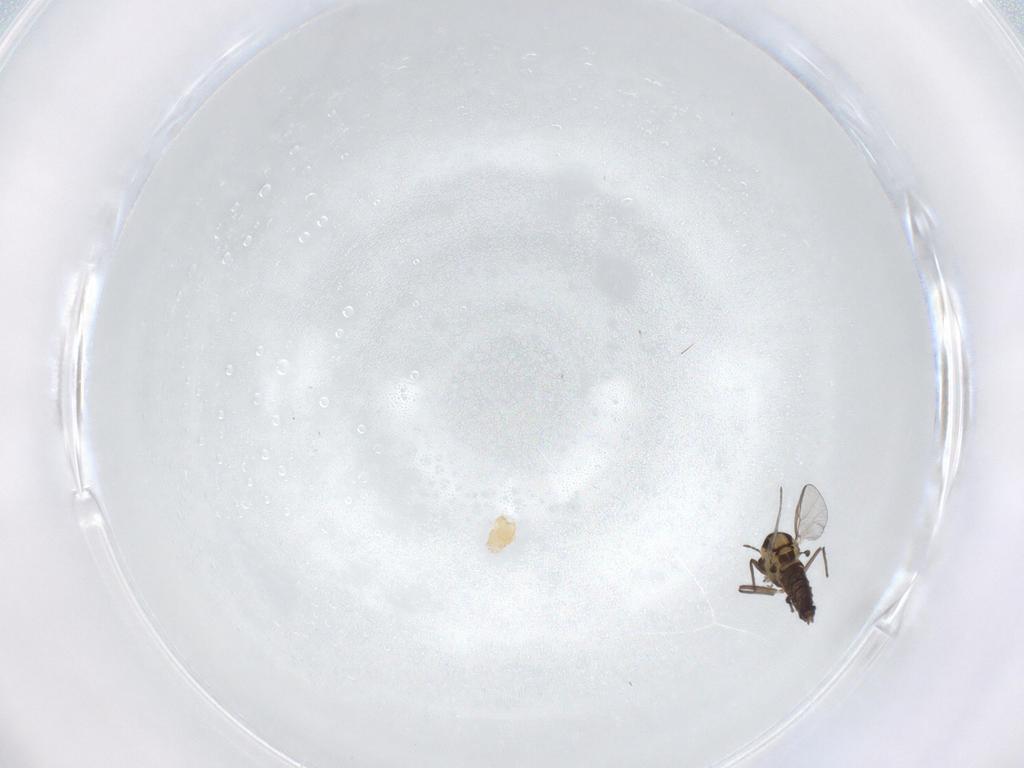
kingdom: Animalia
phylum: Arthropoda
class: Insecta
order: Diptera
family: Chironomidae
